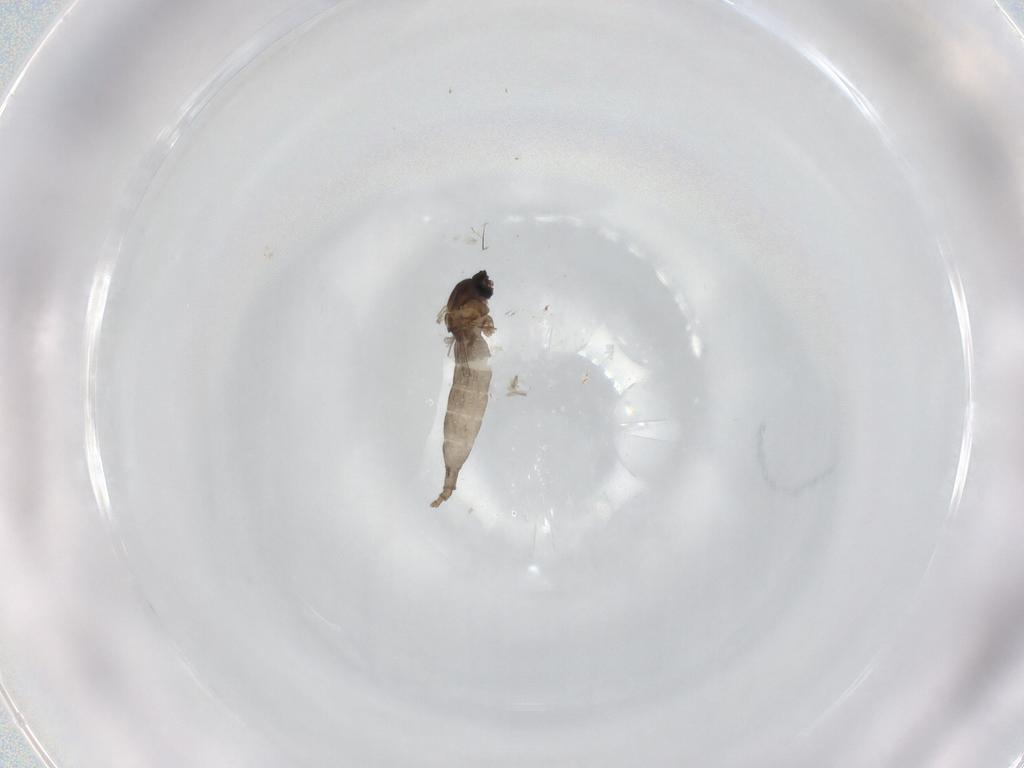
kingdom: Animalia
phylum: Arthropoda
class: Insecta
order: Diptera
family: Cecidomyiidae
